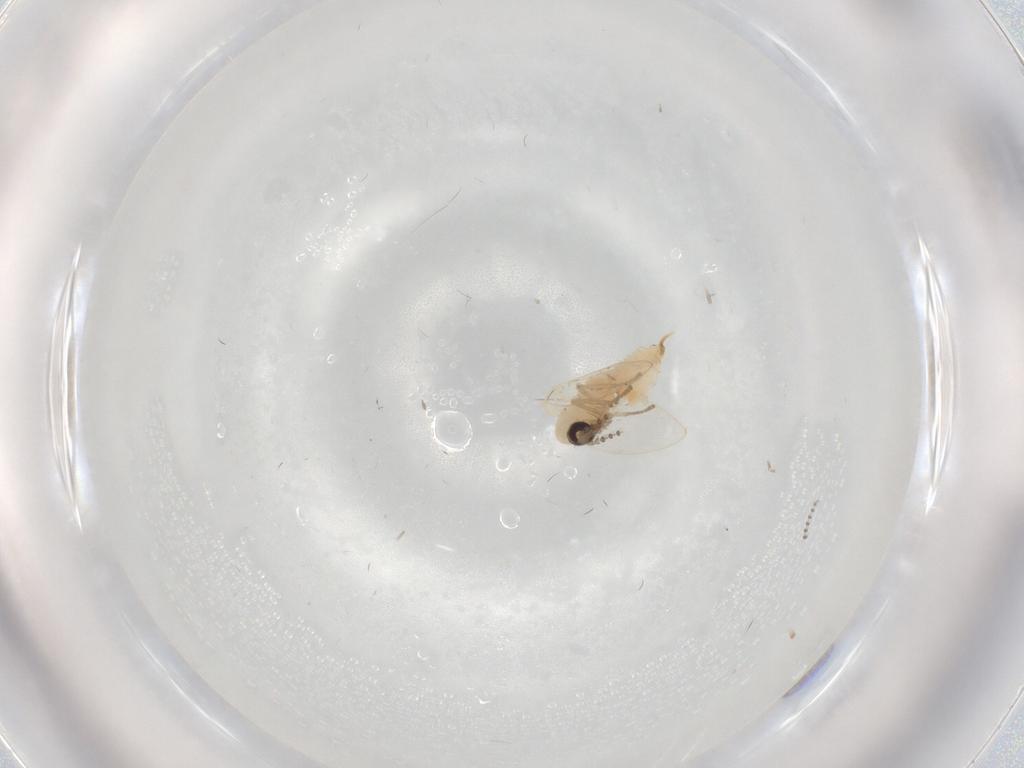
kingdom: Animalia
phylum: Arthropoda
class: Insecta
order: Diptera
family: Psychodidae
